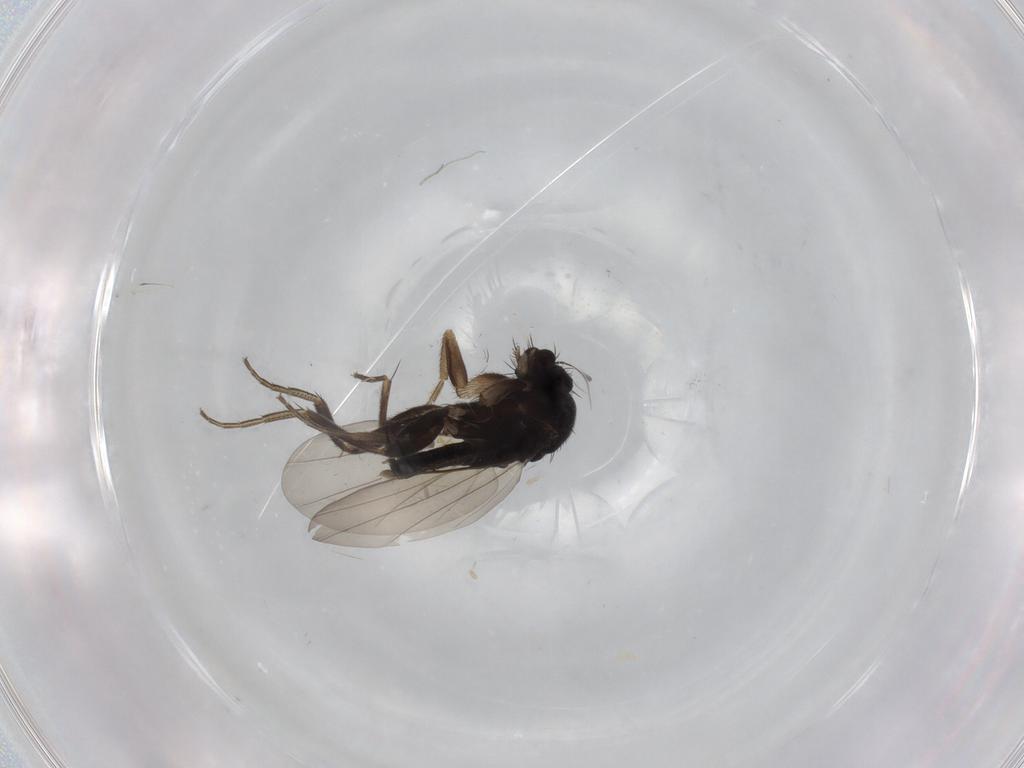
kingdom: Animalia
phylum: Arthropoda
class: Insecta
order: Diptera
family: Phoridae
